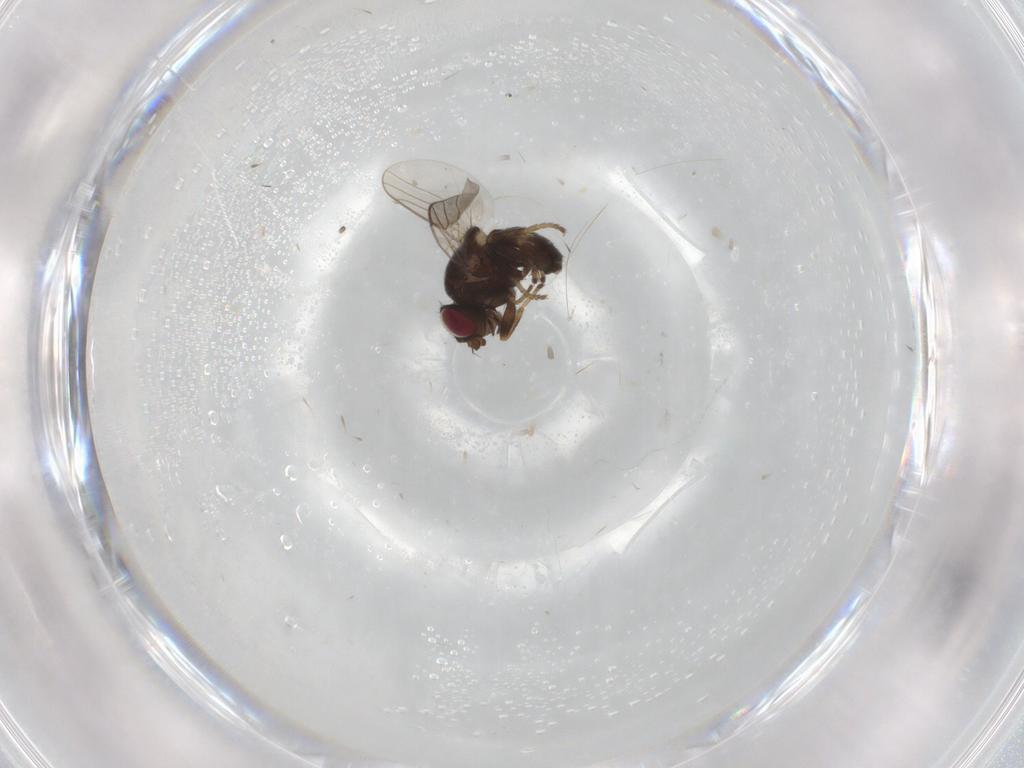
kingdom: Animalia
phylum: Arthropoda
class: Insecta
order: Diptera
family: Chloropidae
